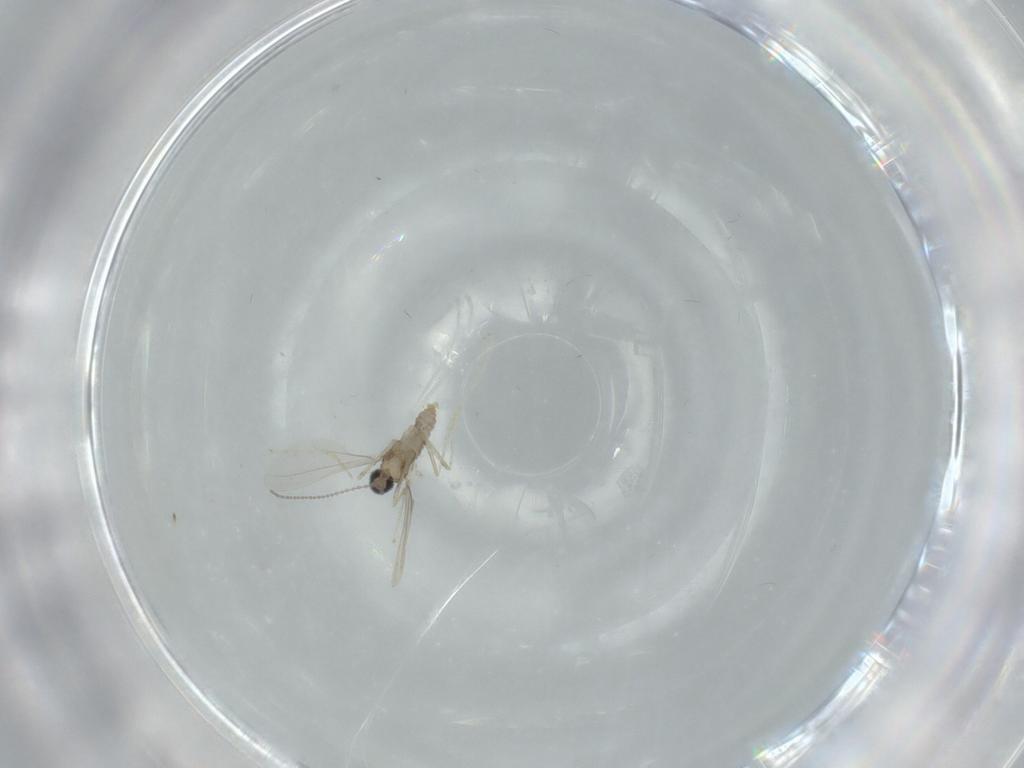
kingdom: Animalia
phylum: Arthropoda
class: Insecta
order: Diptera
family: Cecidomyiidae
